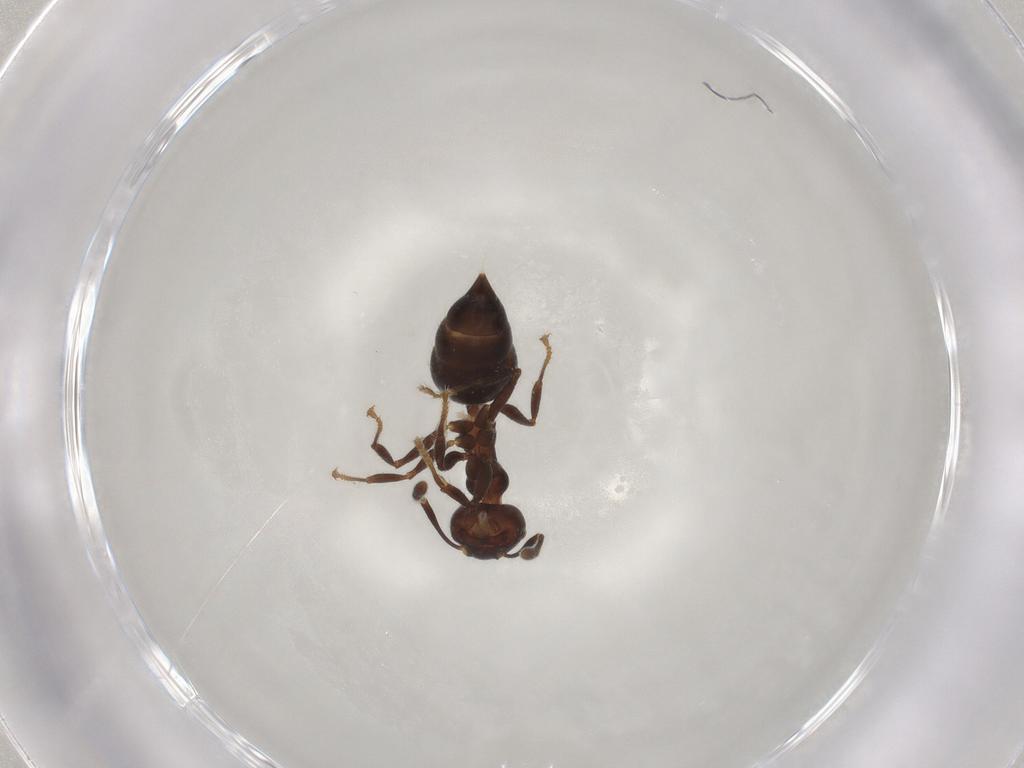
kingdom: Animalia
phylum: Arthropoda
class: Insecta
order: Hymenoptera
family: Formicidae
